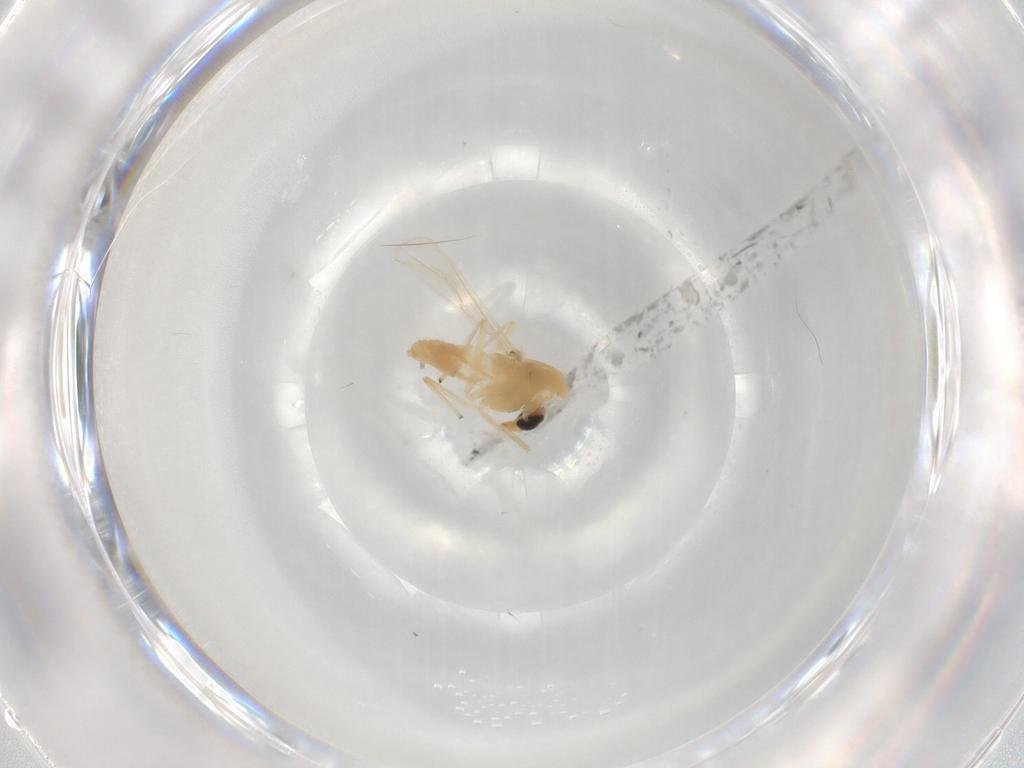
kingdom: Animalia
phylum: Arthropoda
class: Insecta
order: Diptera
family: Chironomidae
